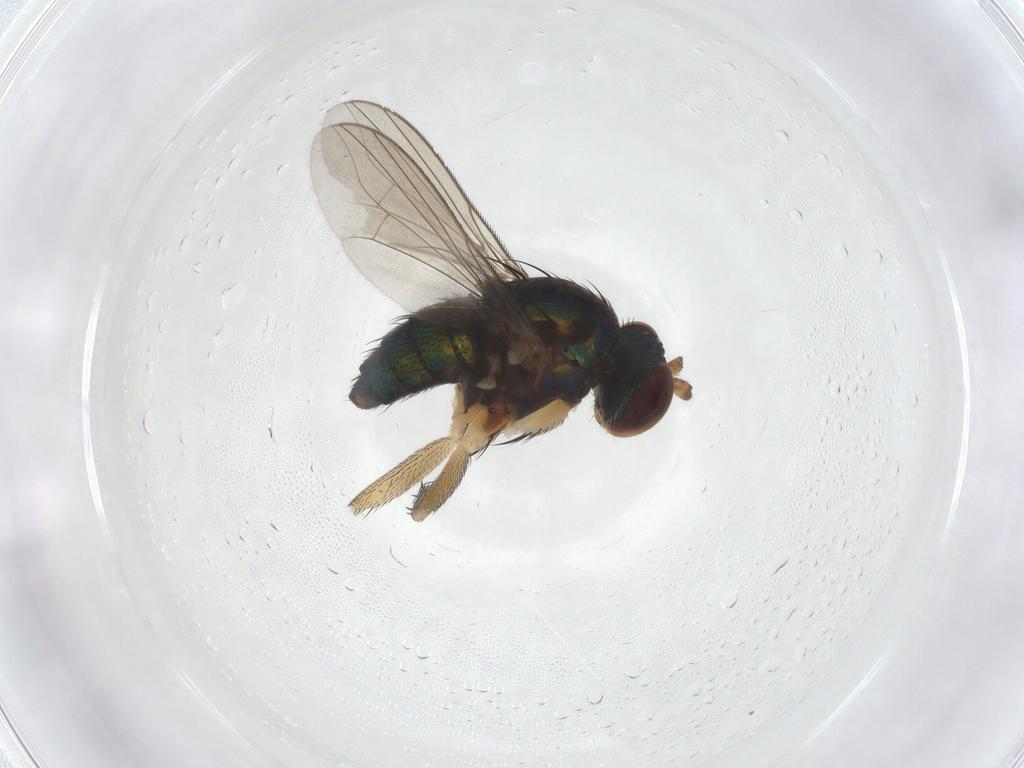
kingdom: Animalia
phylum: Arthropoda
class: Insecta
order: Diptera
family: Dolichopodidae
